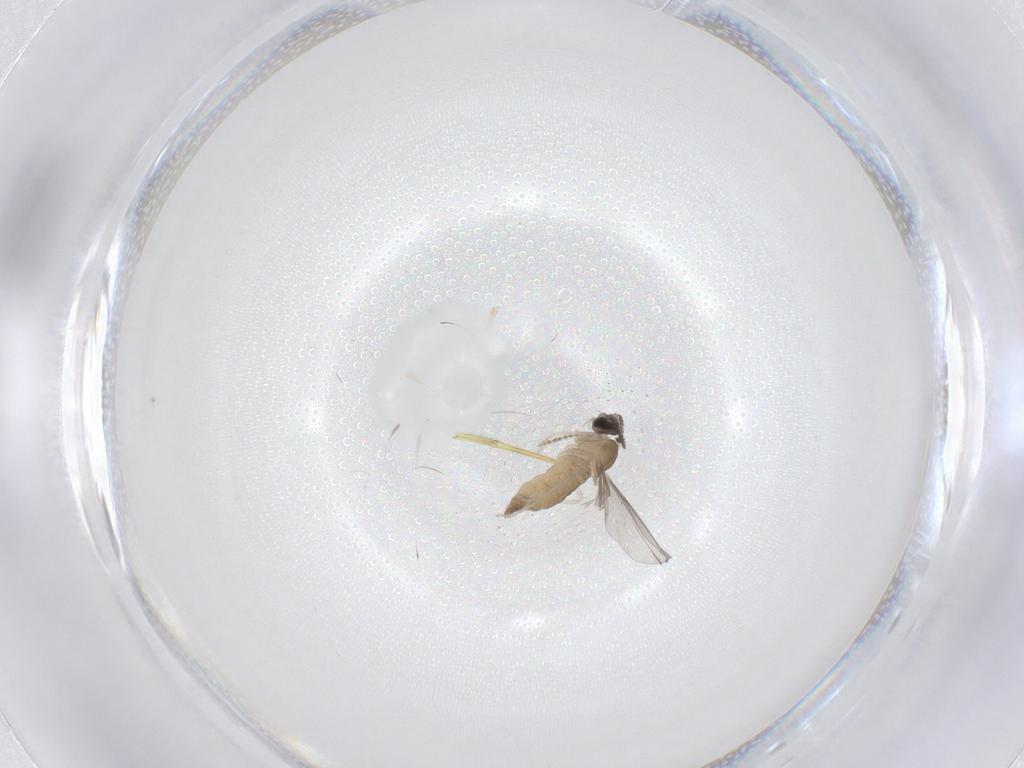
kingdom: Animalia
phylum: Arthropoda
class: Insecta
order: Diptera
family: Cecidomyiidae
